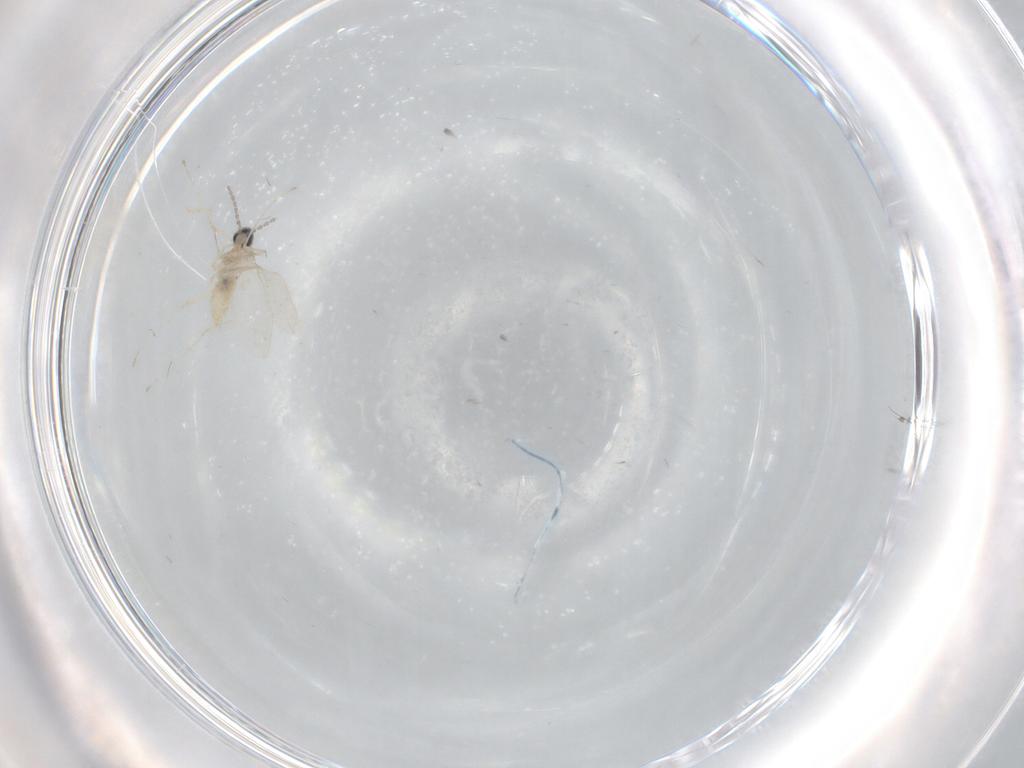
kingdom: Animalia
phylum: Arthropoda
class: Insecta
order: Diptera
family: Cecidomyiidae
